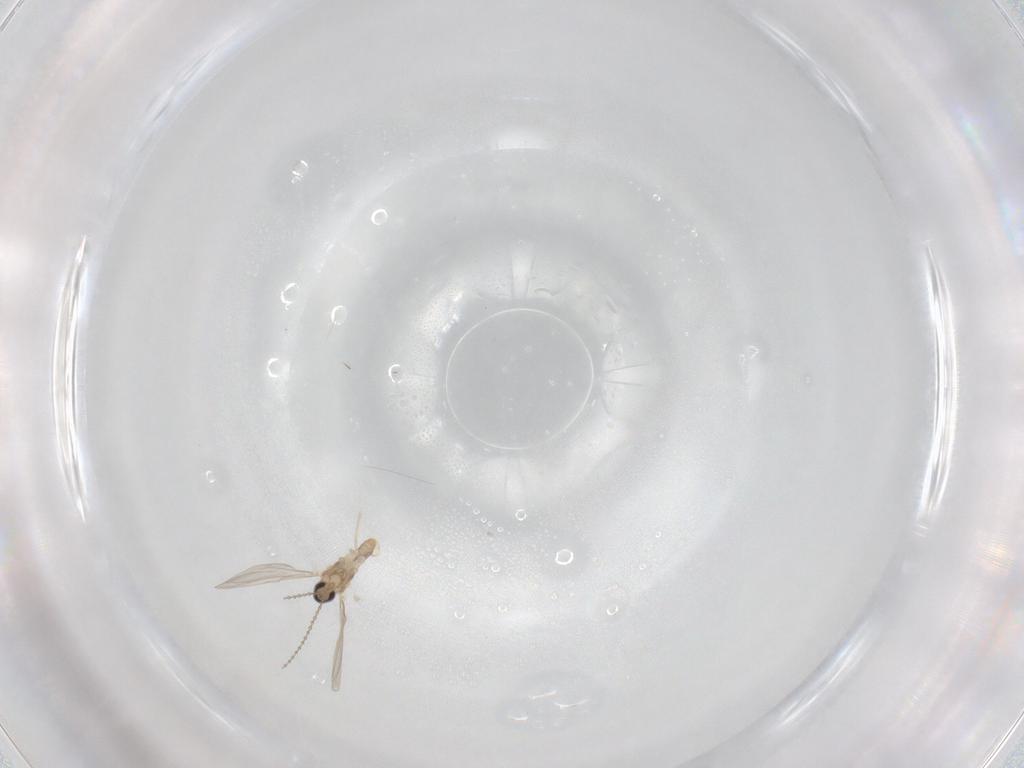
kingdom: Animalia
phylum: Arthropoda
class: Insecta
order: Diptera
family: Cecidomyiidae
